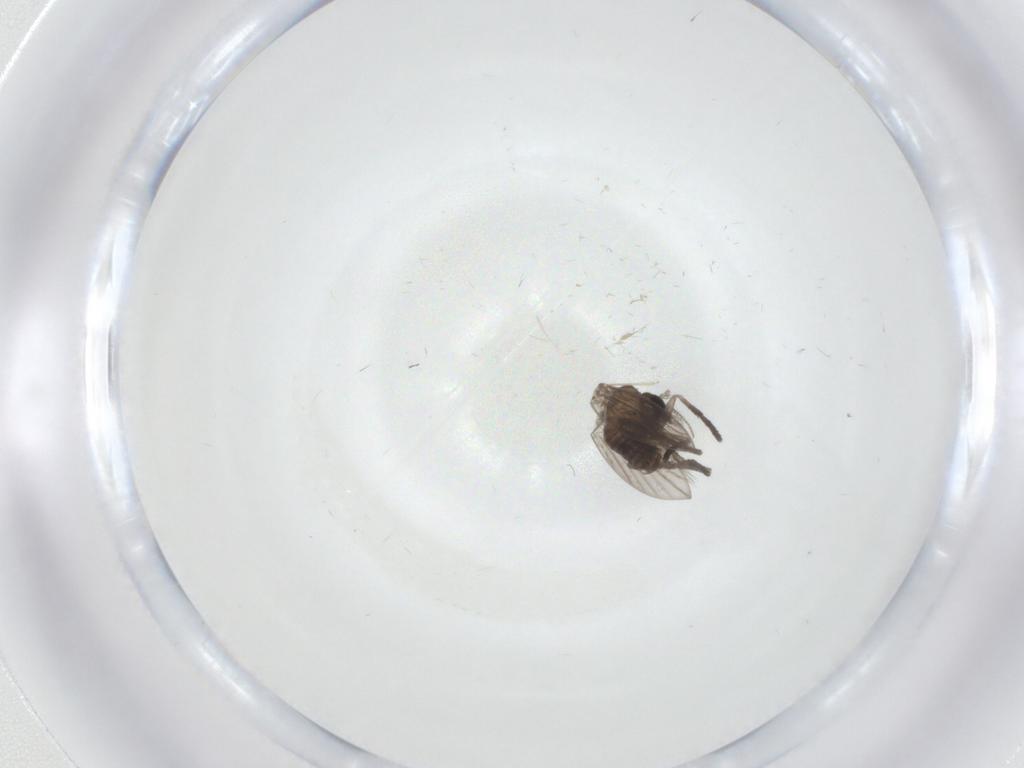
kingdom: Animalia
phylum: Arthropoda
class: Insecta
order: Diptera
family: Psychodidae
